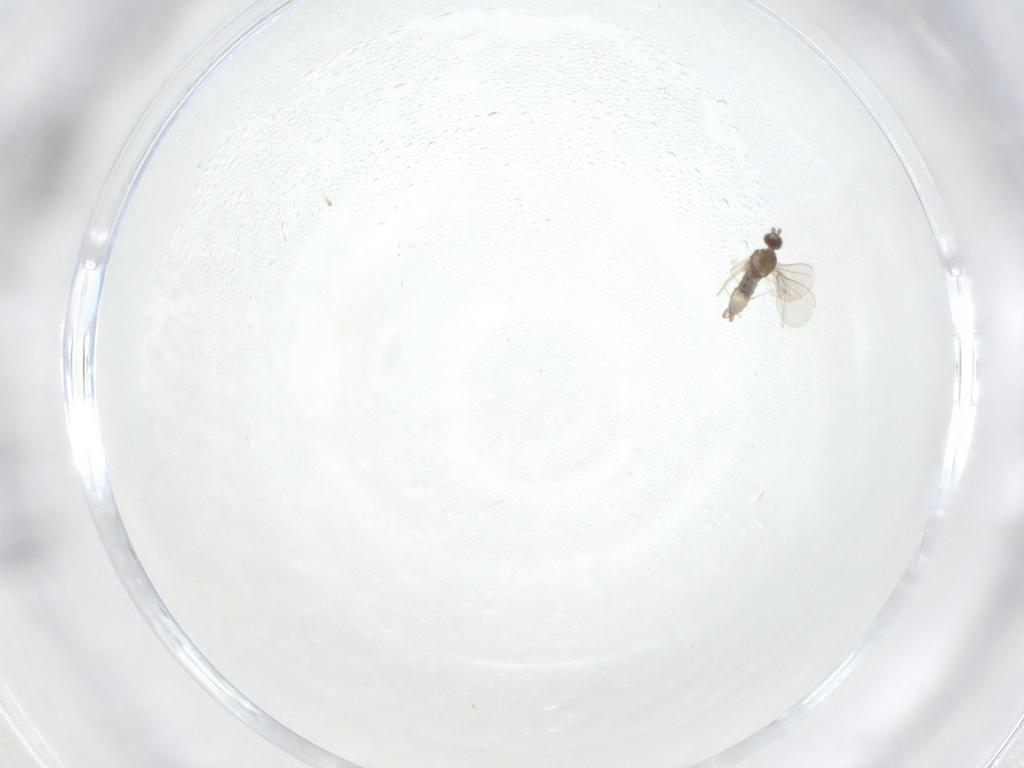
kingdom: Animalia
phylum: Arthropoda
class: Insecta
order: Diptera
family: Cecidomyiidae
